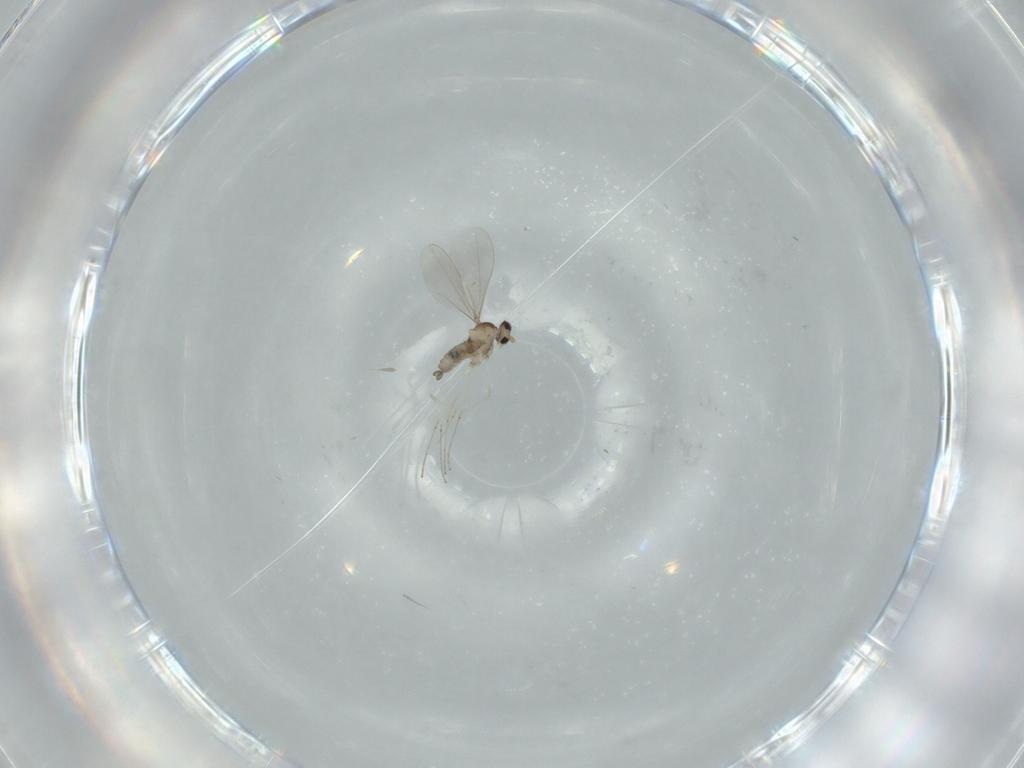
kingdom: Animalia
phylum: Arthropoda
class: Insecta
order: Diptera
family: Cecidomyiidae
